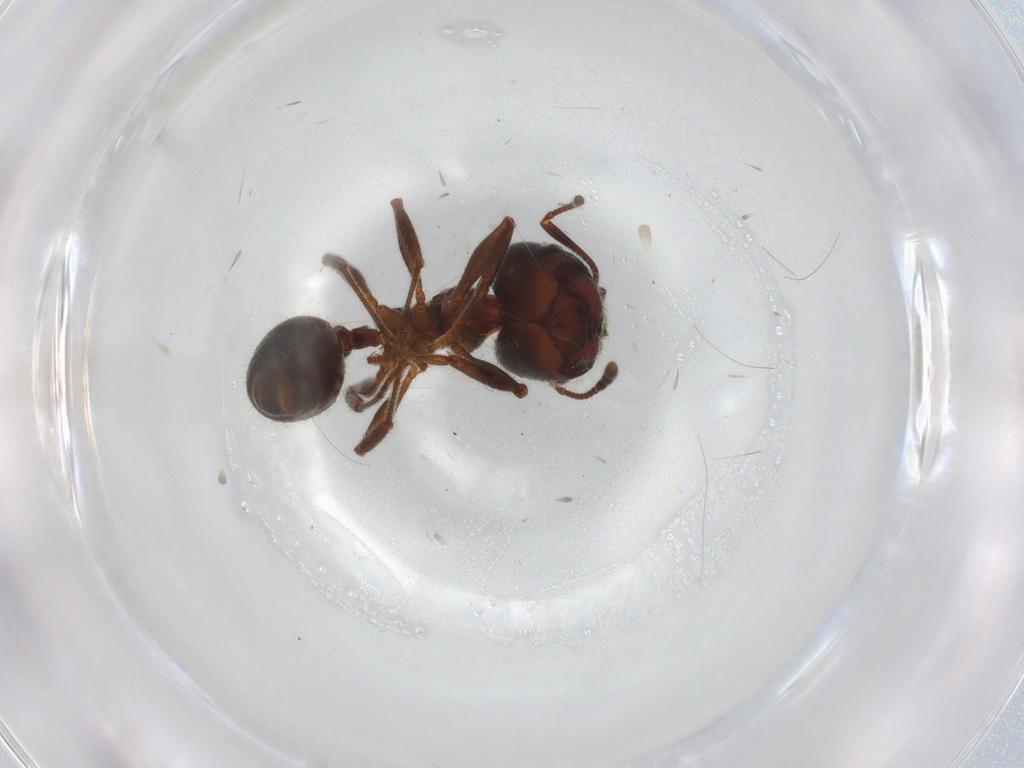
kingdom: Animalia
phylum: Arthropoda
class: Insecta
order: Hymenoptera
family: Formicidae
